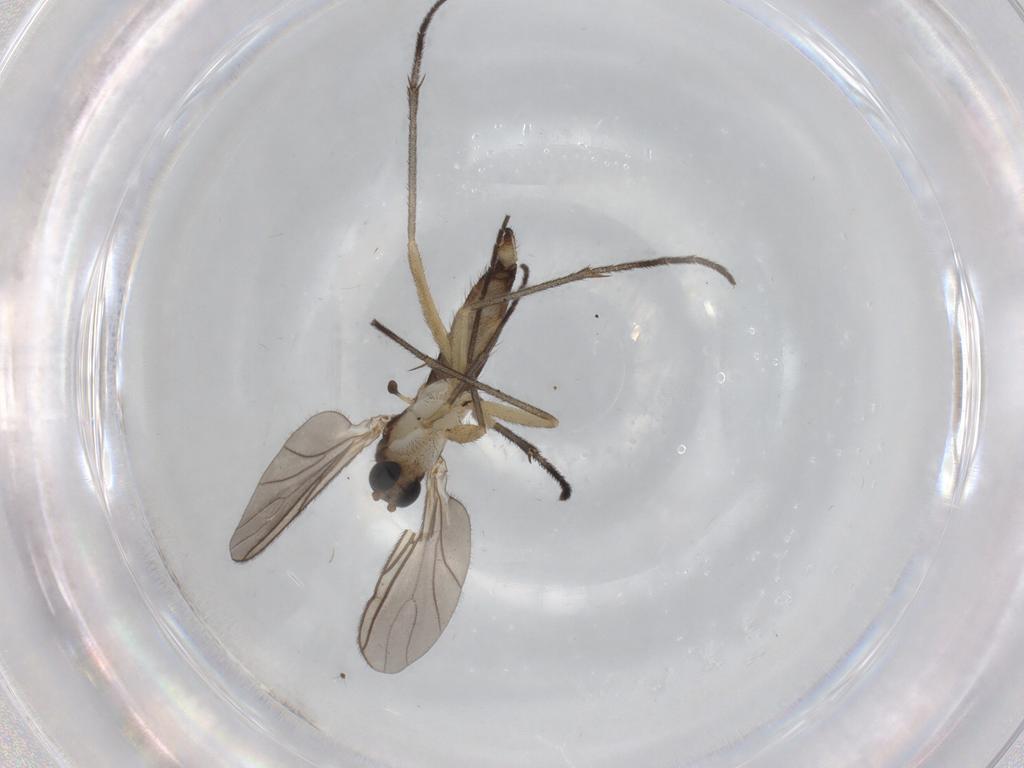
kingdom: Animalia
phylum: Arthropoda
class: Insecta
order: Diptera
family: Sciaridae
